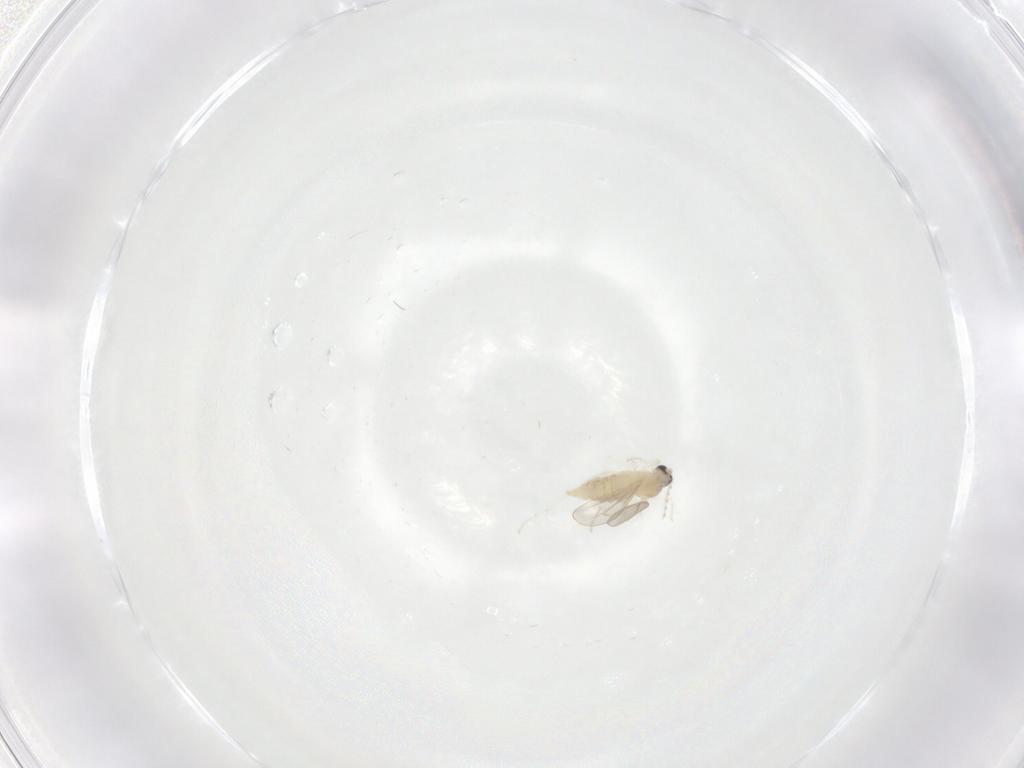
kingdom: Animalia
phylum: Arthropoda
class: Insecta
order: Diptera
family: Psychodidae
